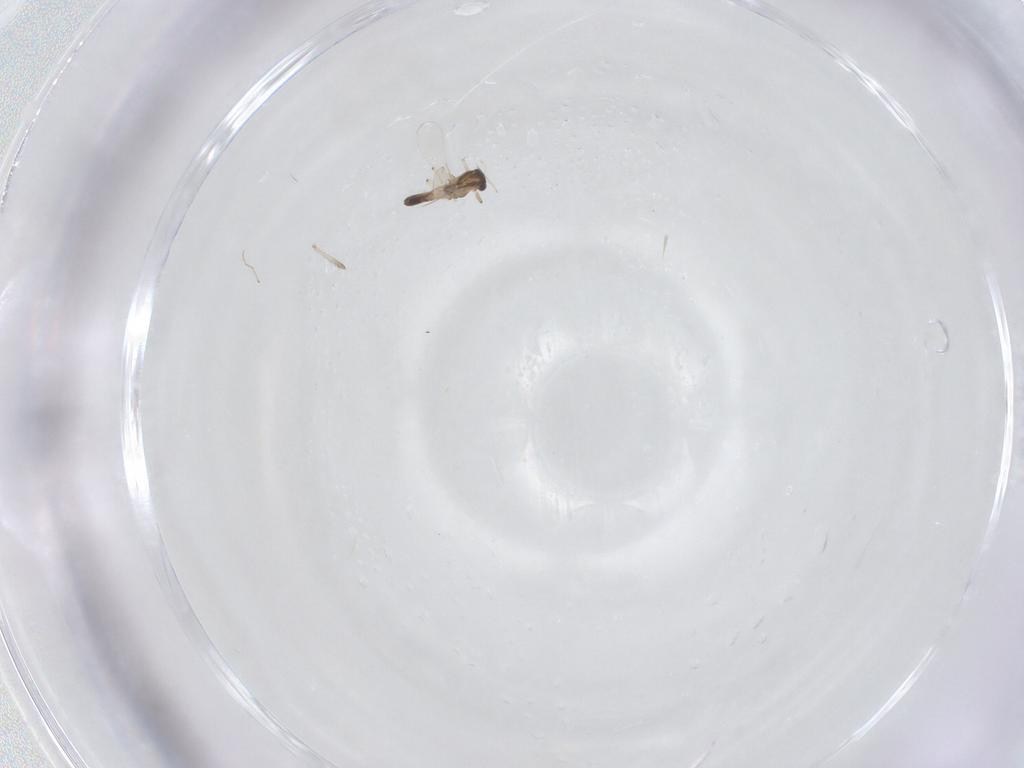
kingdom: Animalia
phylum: Arthropoda
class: Insecta
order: Diptera
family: Chironomidae
